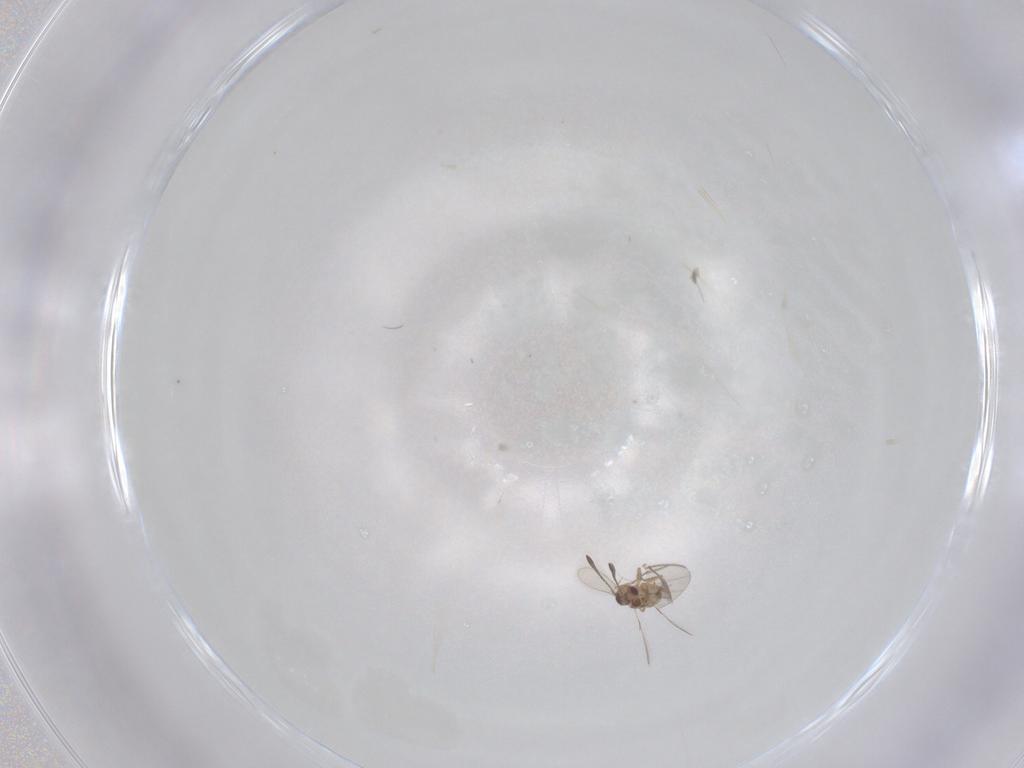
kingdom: Animalia
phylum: Arthropoda
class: Insecta
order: Hymenoptera
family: Mymaridae
